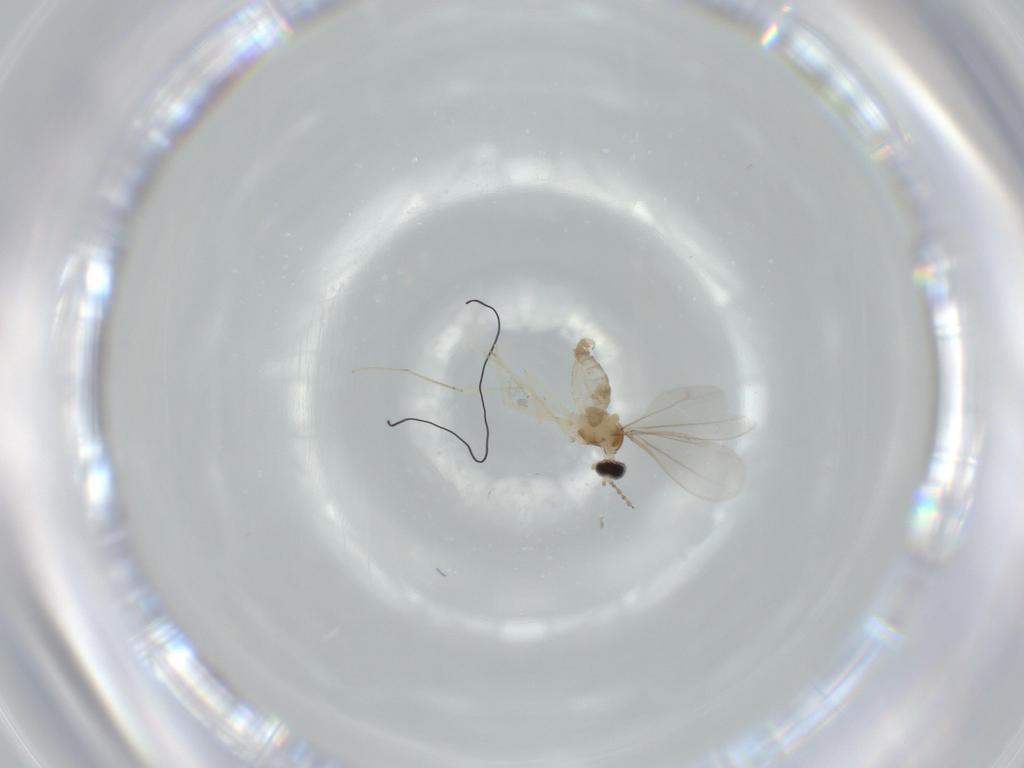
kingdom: Animalia
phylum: Arthropoda
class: Insecta
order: Diptera
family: Cecidomyiidae
